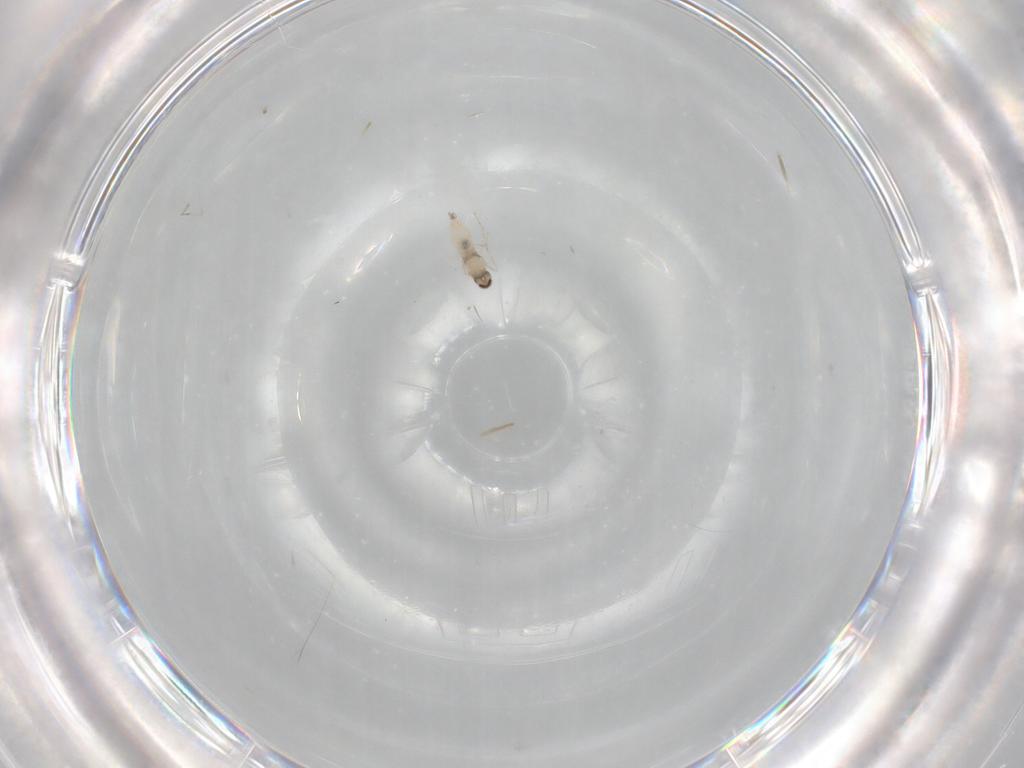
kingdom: Animalia
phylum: Arthropoda
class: Insecta
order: Diptera
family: Cecidomyiidae
